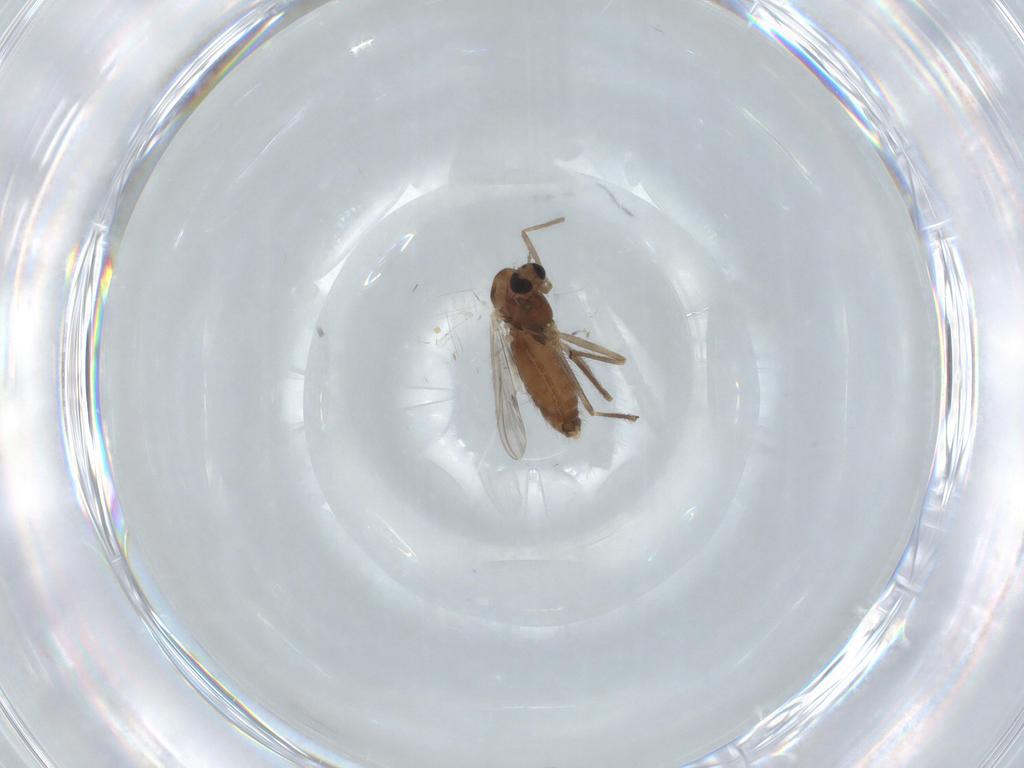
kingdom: Animalia
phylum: Arthropoda
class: Insecta
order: Diptera
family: Chironomidae
